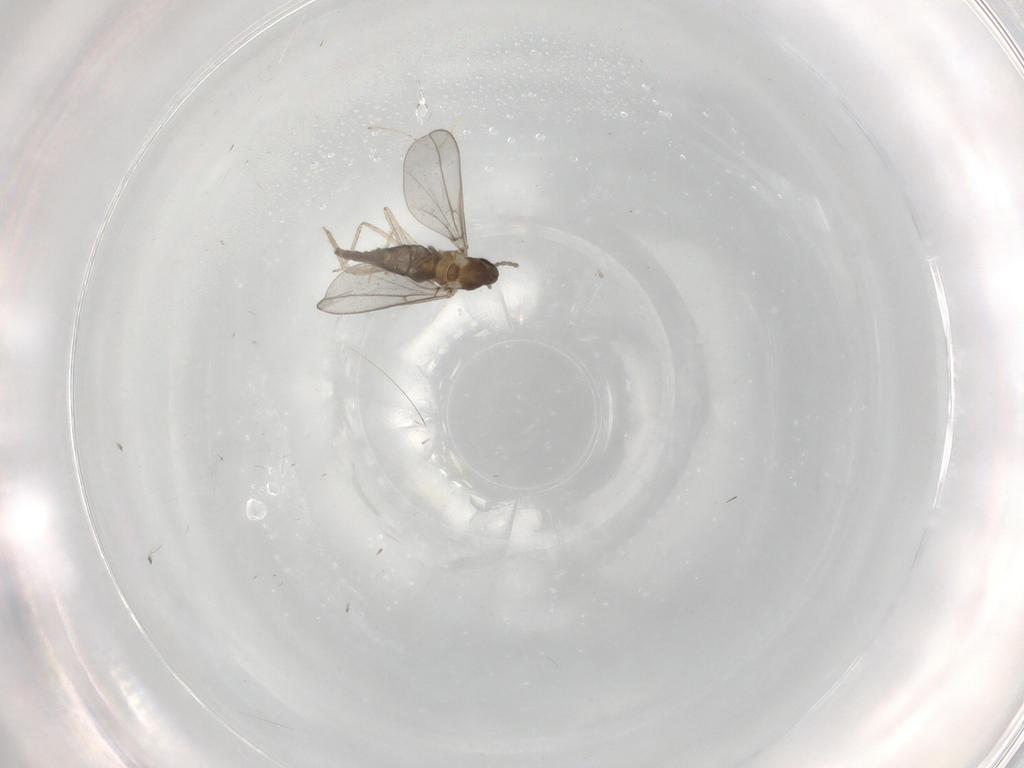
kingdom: Animalia
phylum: Arthropoda
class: Insecta
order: Diptera
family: Cecidomyiidae
